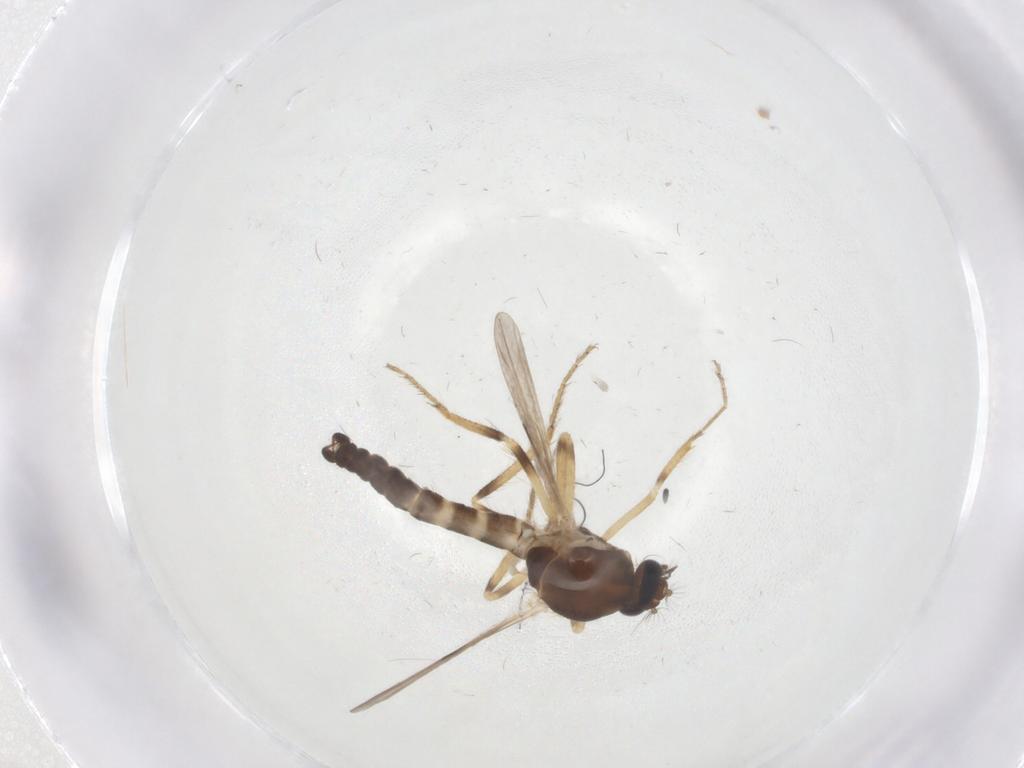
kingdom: Animalia
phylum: Arthropoda
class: Insecta
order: Diptera
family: Ceratopogonidae
